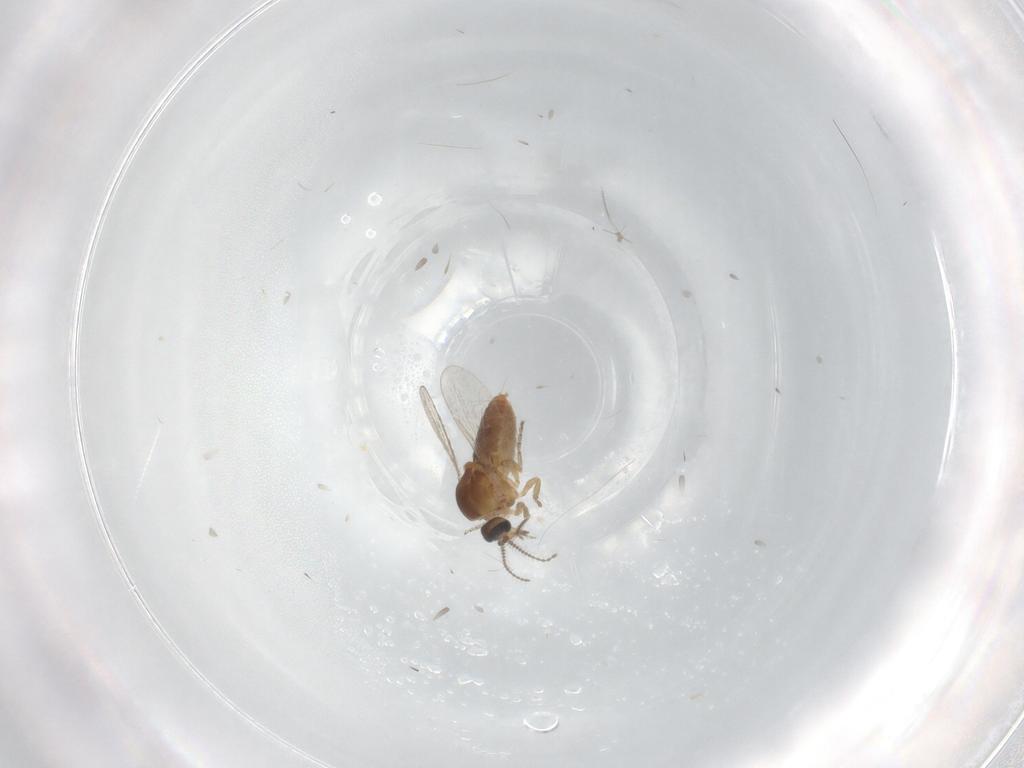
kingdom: Animalia
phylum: Arthropoda
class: Insecta
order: Diptera
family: Ceratopogonidae
